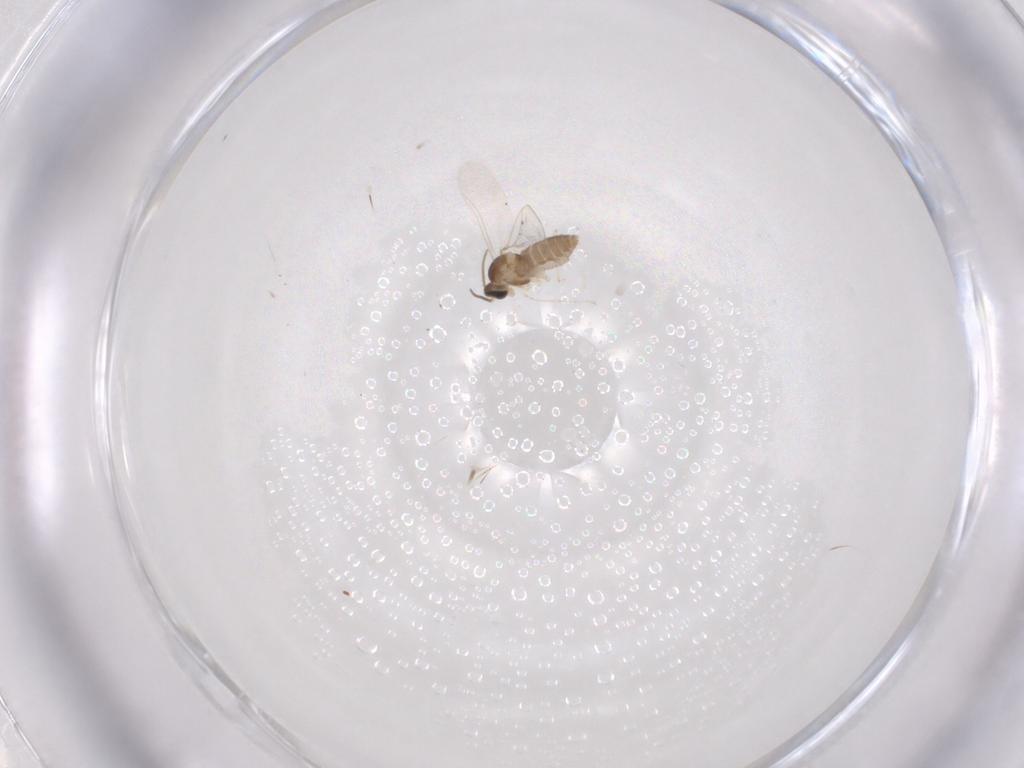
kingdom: Animalia
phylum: Arthropoda
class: Insecta
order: Diptera
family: Cecidomyiidae
